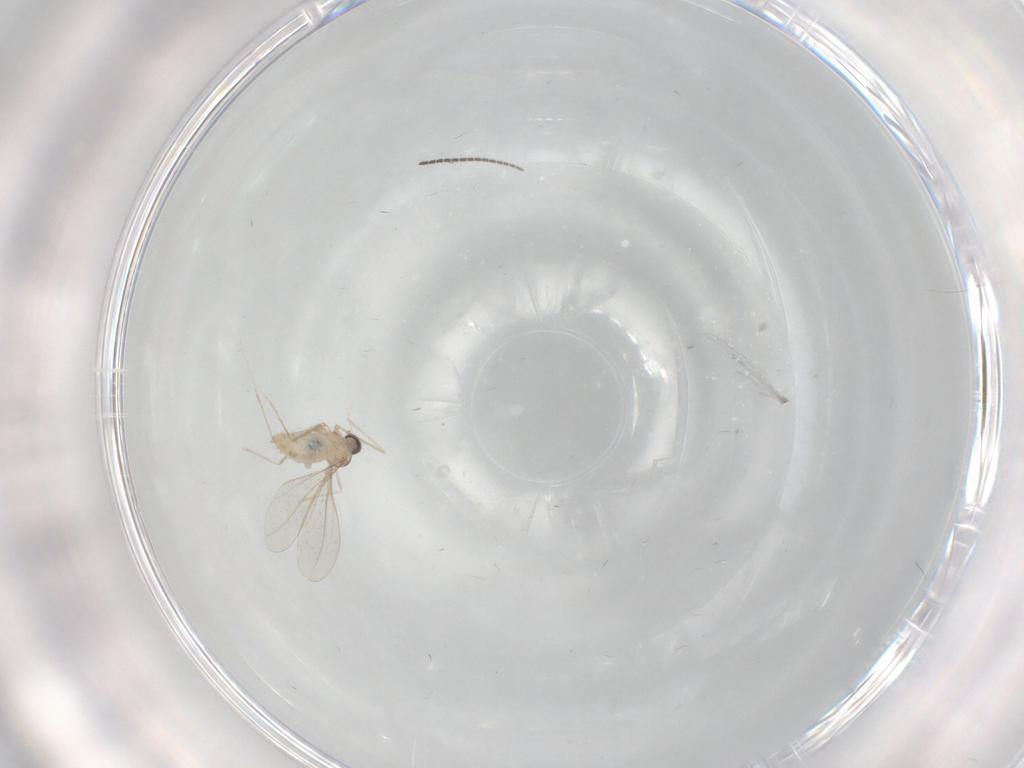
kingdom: Animalia
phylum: Arthropoda
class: Insecta
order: Diptera
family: Cecidomyiidae
